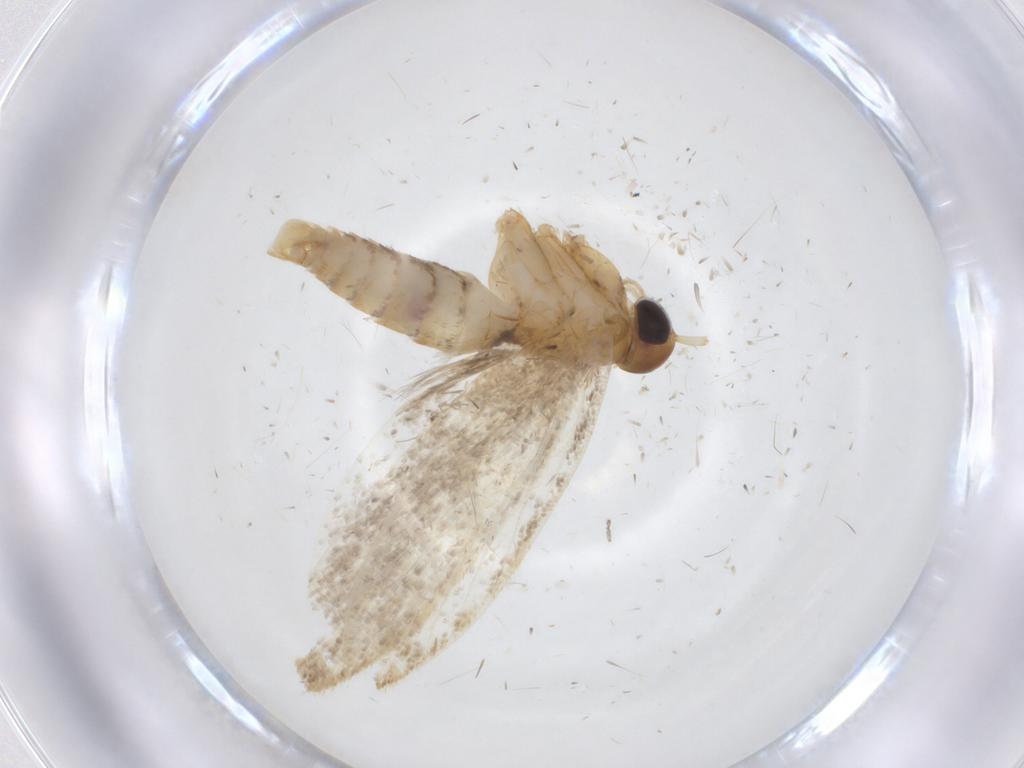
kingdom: Animalia
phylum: Arthropoda
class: Insecta
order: Lepidoptera
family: Oecophoridae
